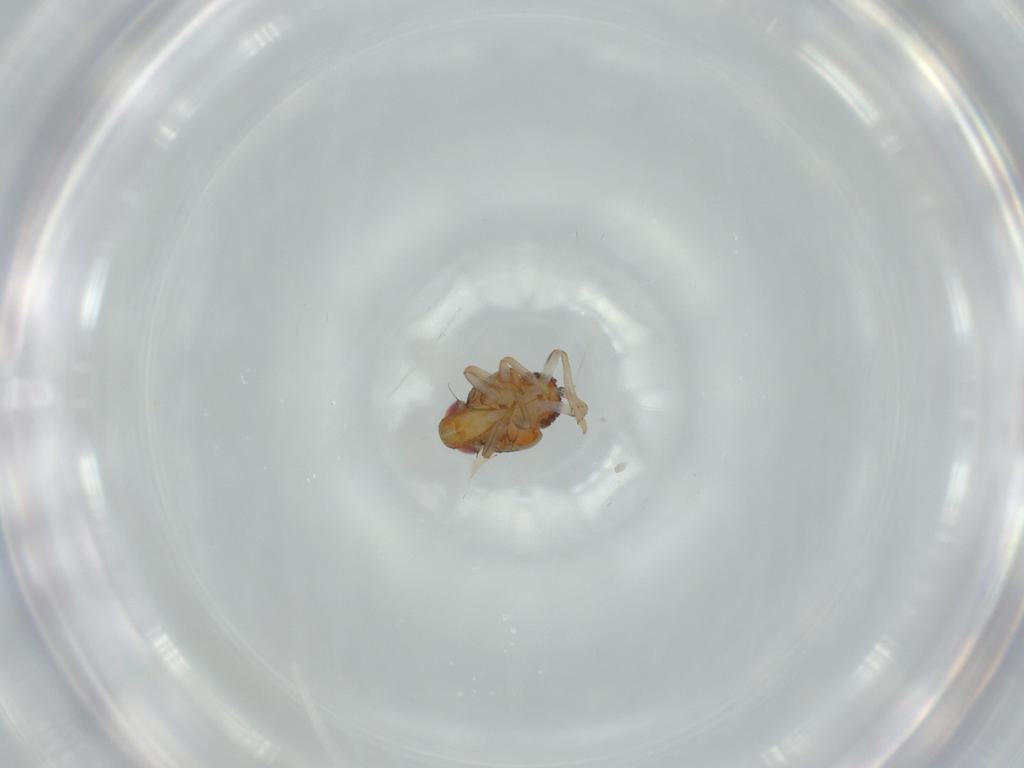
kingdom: Animalia
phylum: Arthropoda
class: Insecta
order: Hemiptera
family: Issidae
